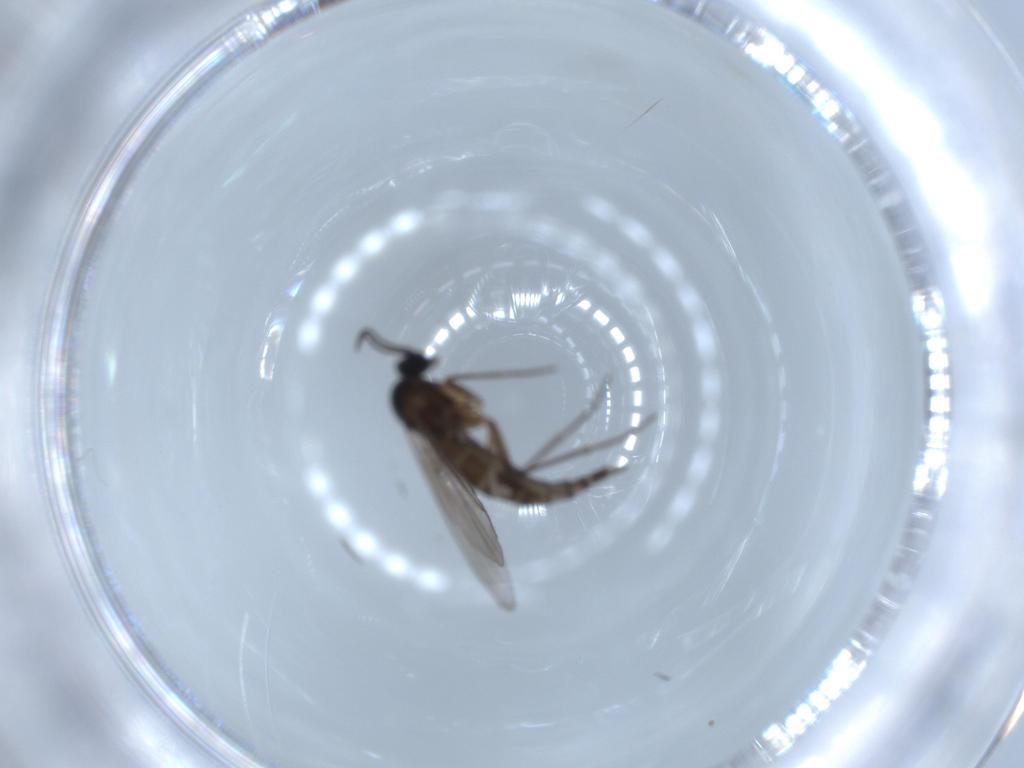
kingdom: Animalia
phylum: Arthropoda
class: Insecta
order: Diptera
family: Sciaridae
